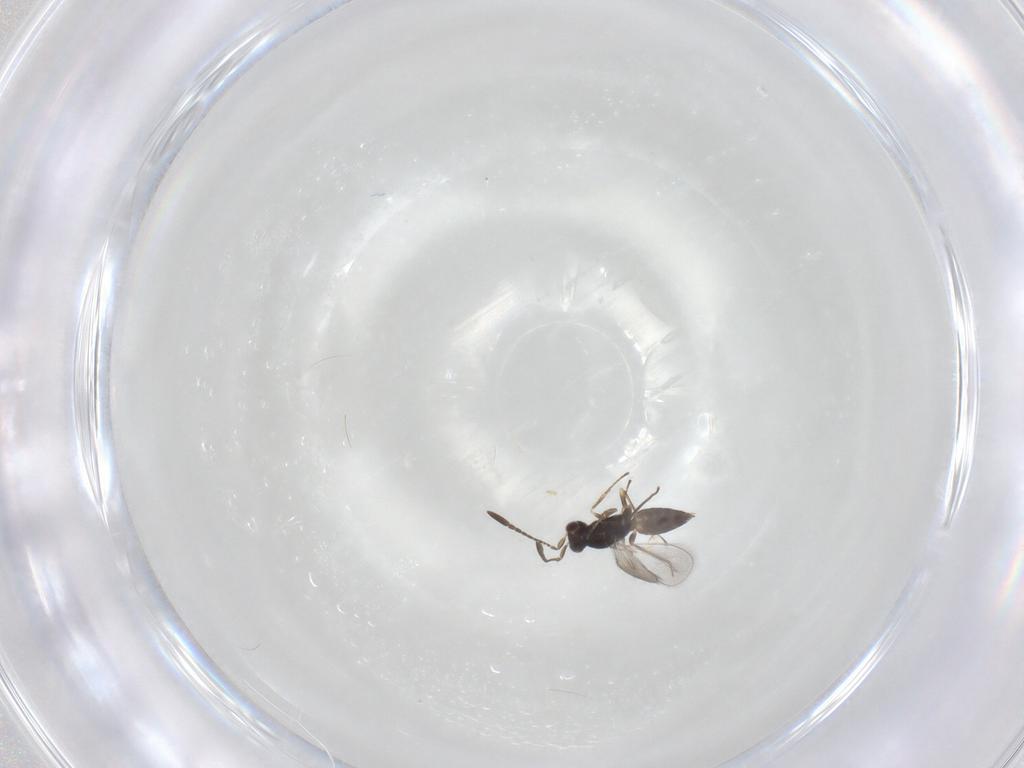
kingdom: Animalia
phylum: Arthropoda
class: Insecta
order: Hymenoptera
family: Mymaridae
